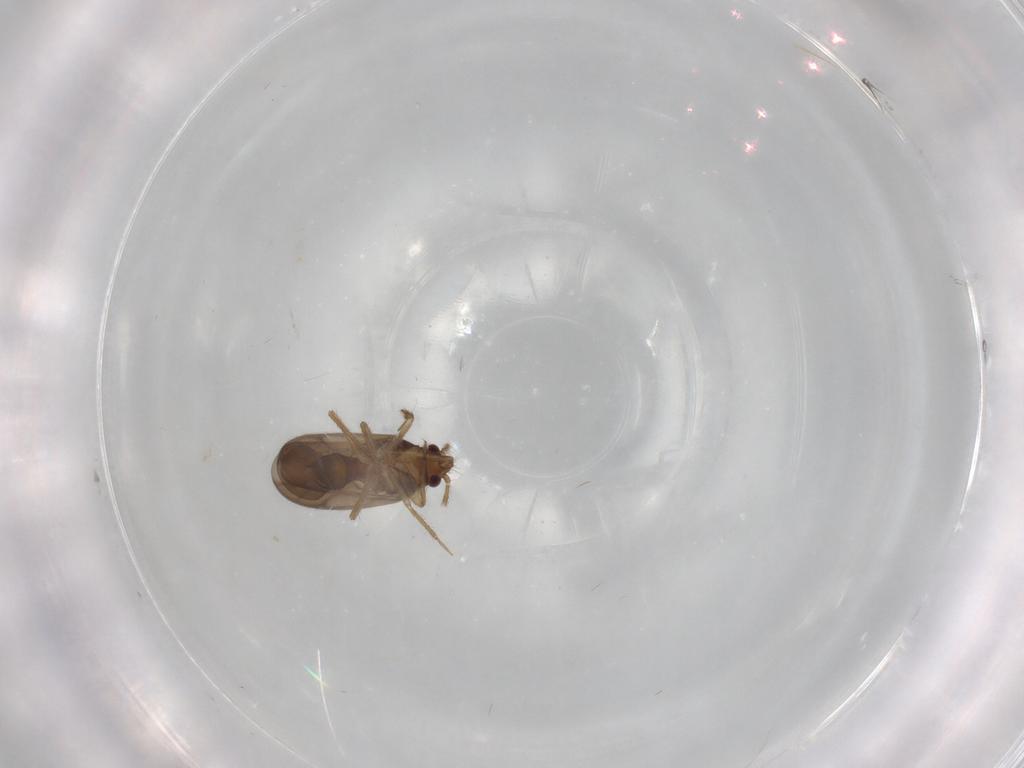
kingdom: Animalia
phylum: Arthropoda
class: Insecta
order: Hemiptera
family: Ceratocombidae
